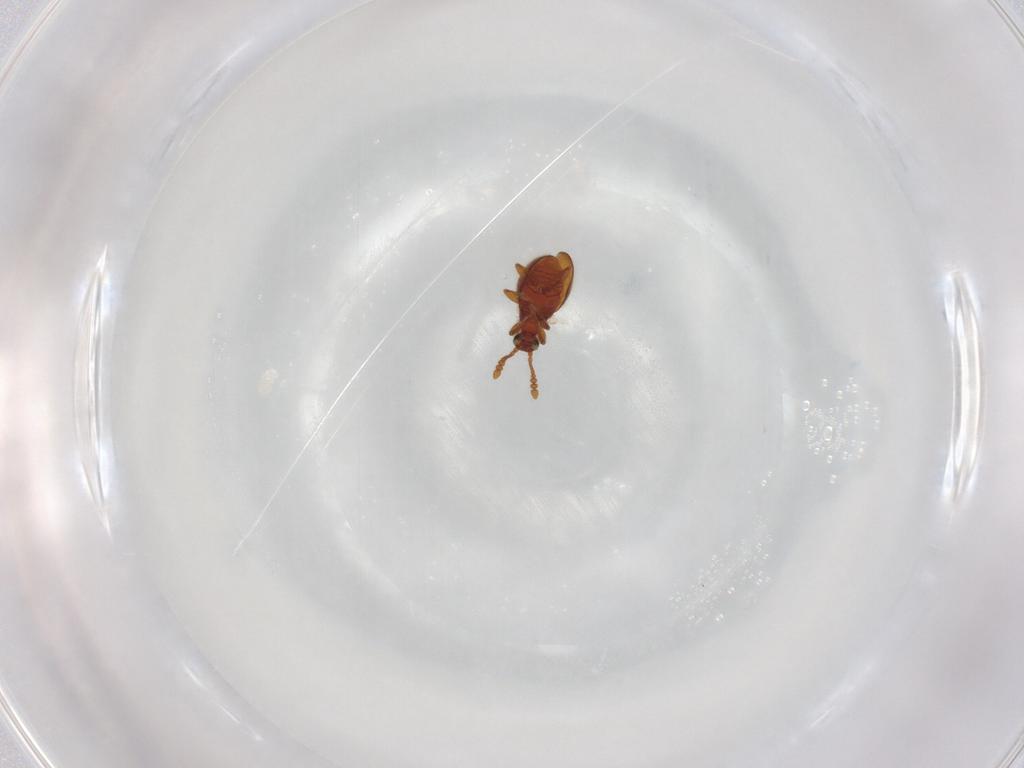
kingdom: Animalia
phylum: Arthropoda
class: Insecta
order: Coleoptera
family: Staphylinidae
